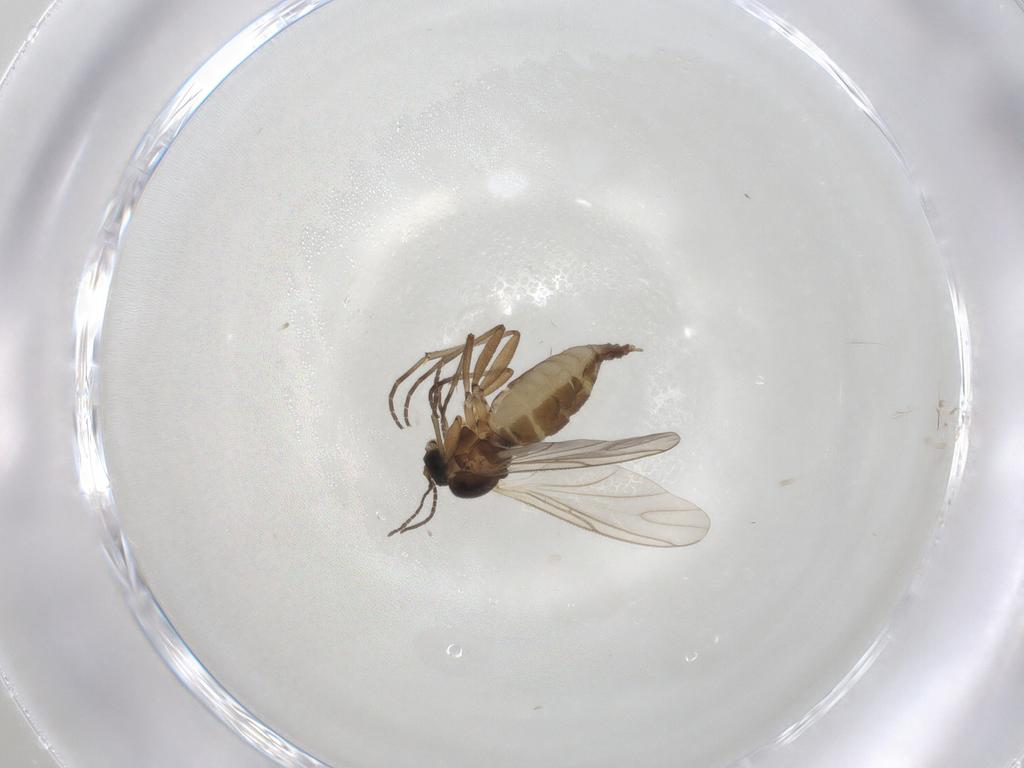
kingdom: Animalia
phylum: Arthropoda
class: Insecta
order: Diptera
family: Chironomidae
